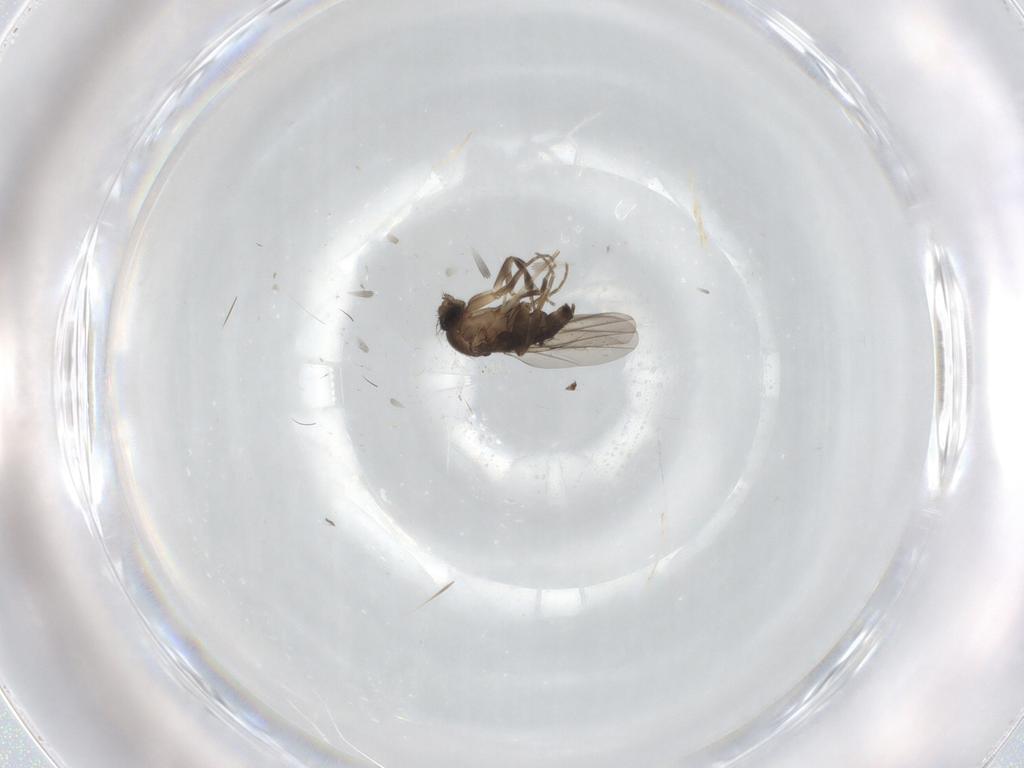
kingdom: Animalia
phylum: Arthropoda
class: Insecta
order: Diptera
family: Chironomidae
